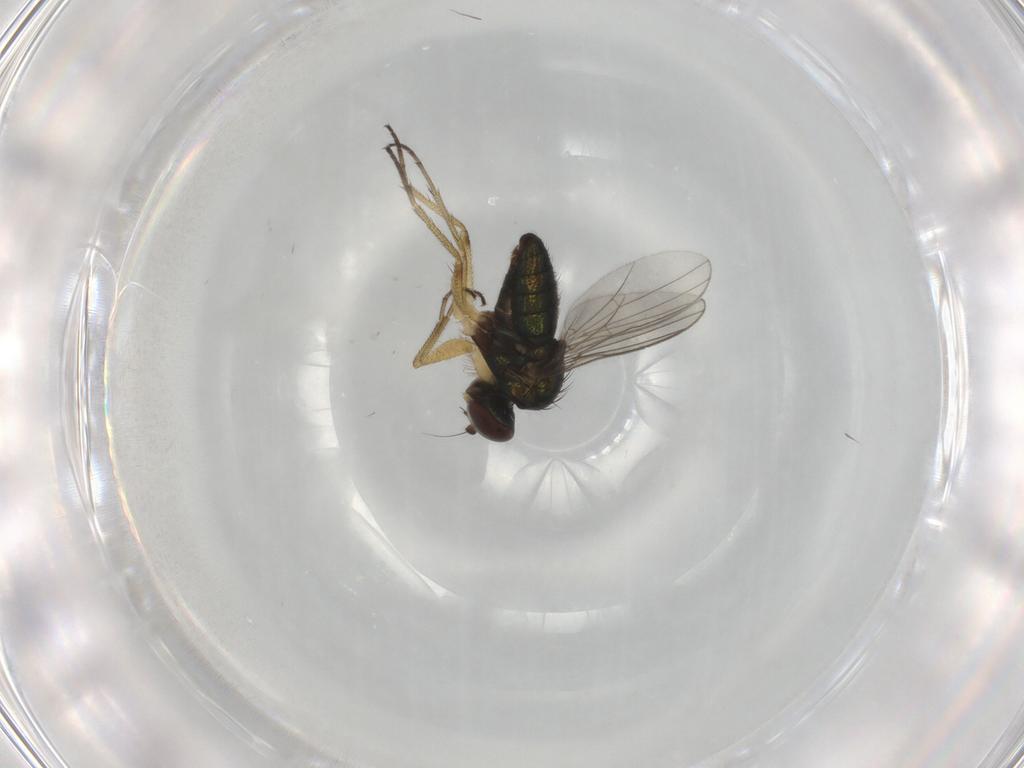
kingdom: Animalia
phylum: Arthropoda
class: Insecta
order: Diptera
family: Dolichopodidae
